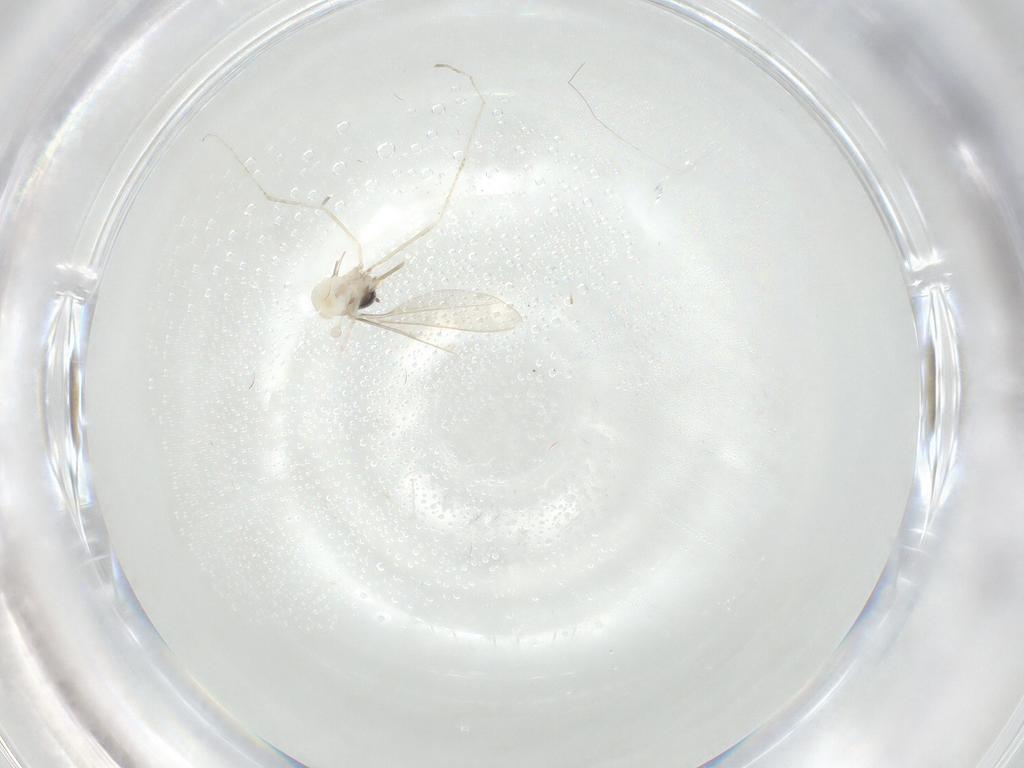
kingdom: Animalia
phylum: Arthropoda
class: Insecta
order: Diptera
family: Cecidomyiidae
